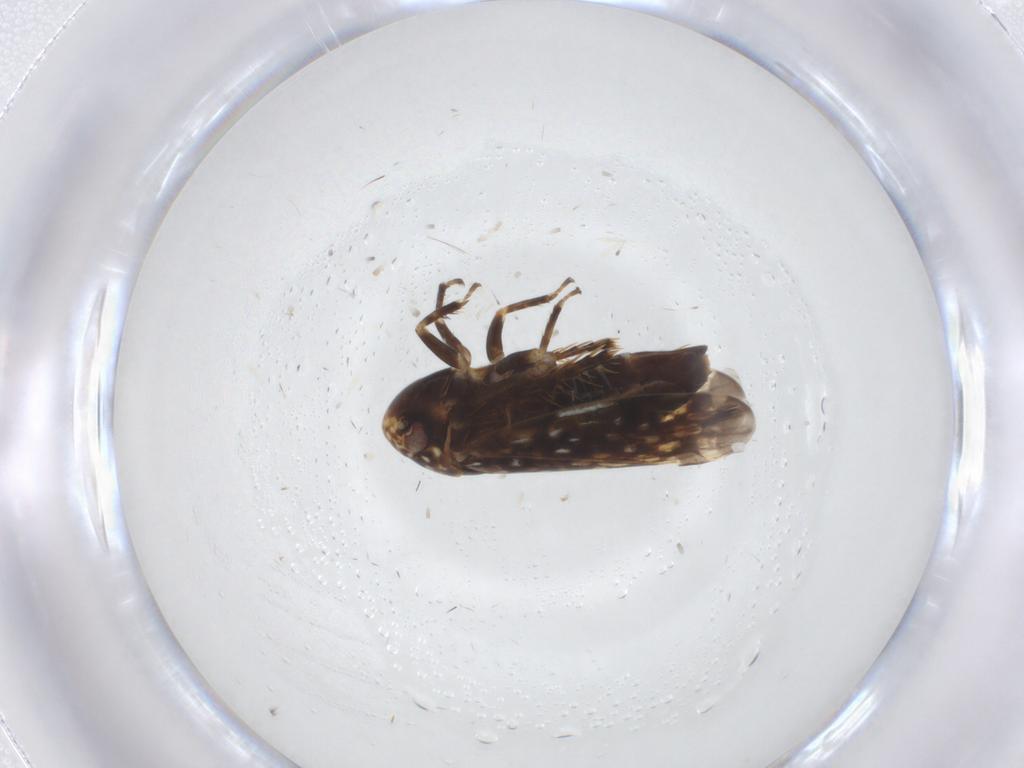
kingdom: Animalia
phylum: Arthropoda
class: Insecta
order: Hemiptera
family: Cicadellidae
